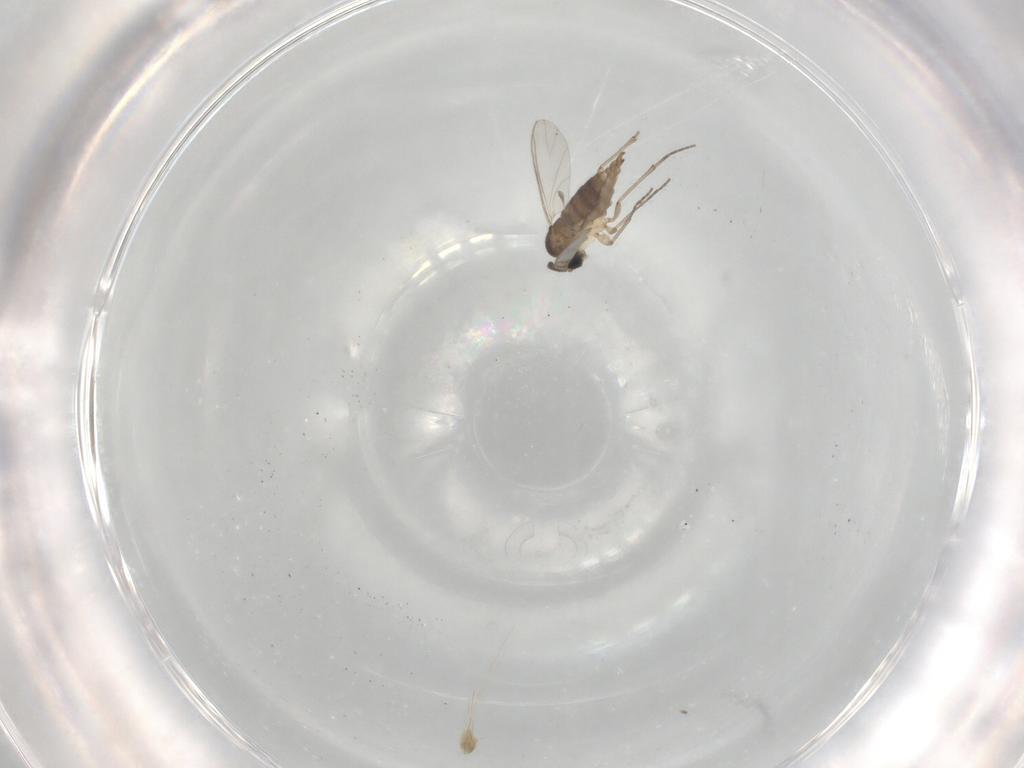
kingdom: Animalia
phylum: Arthropoda
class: Insecta
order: Diptera
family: Sciaridae
